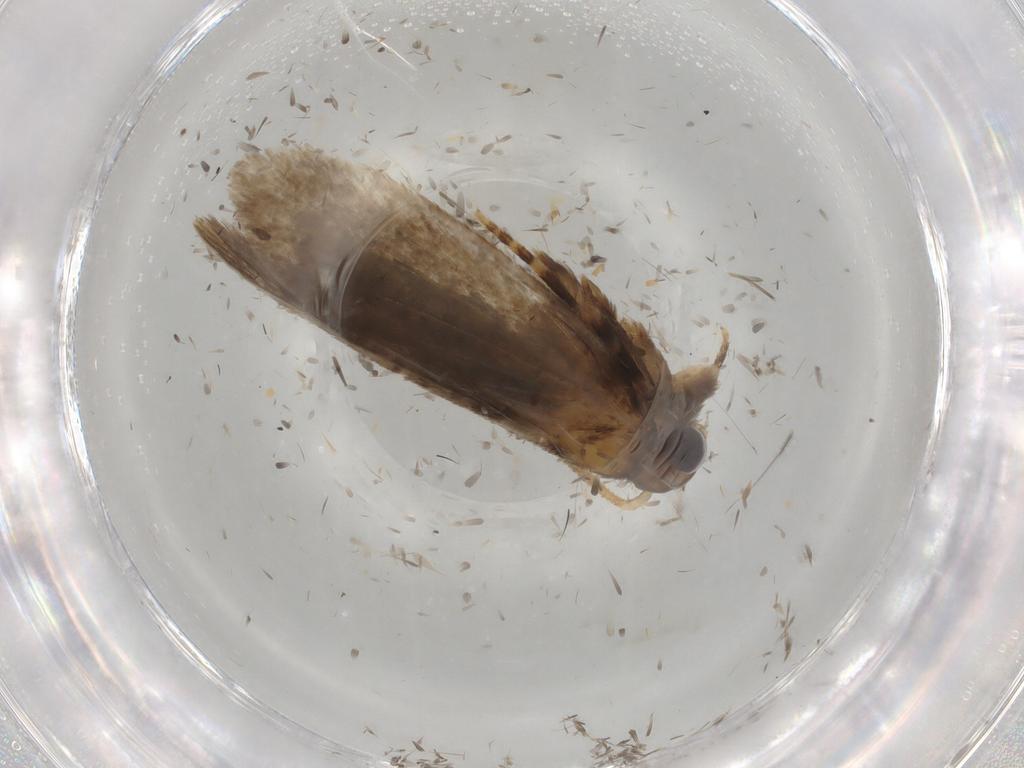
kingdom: Animalia
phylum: Arthropoda
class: Insecta
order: Lepidoptera
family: Tineidae
